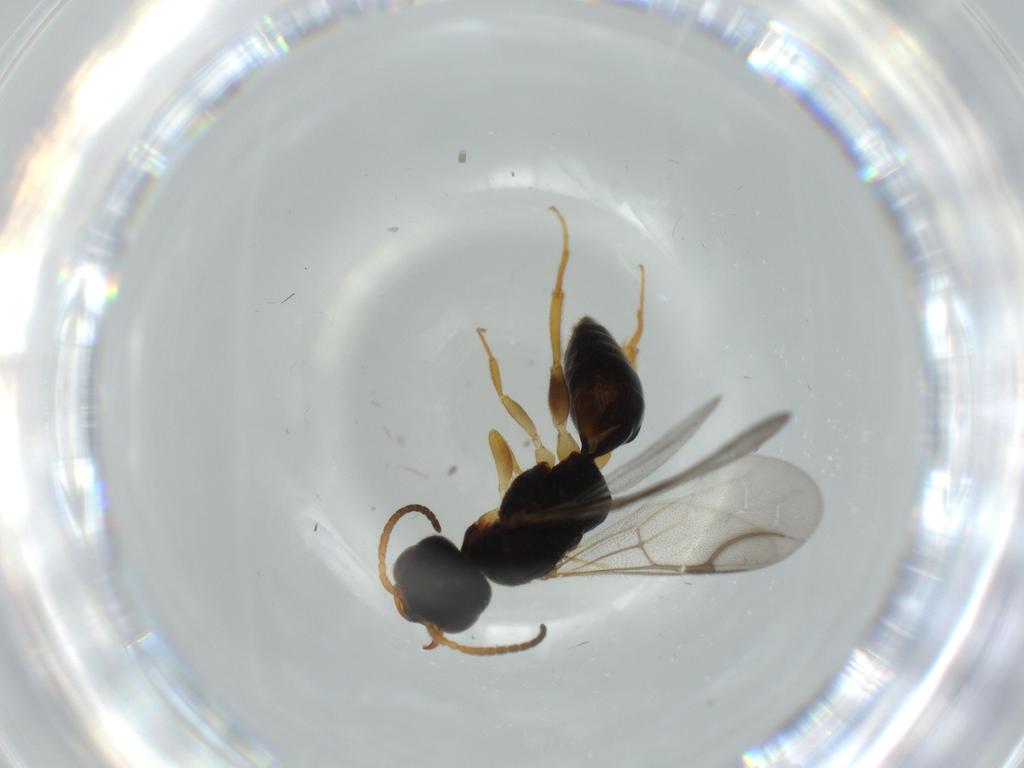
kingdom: Animalia
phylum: Arthropoda
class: Insecta
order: Hymenoptera
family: Bethylidae
